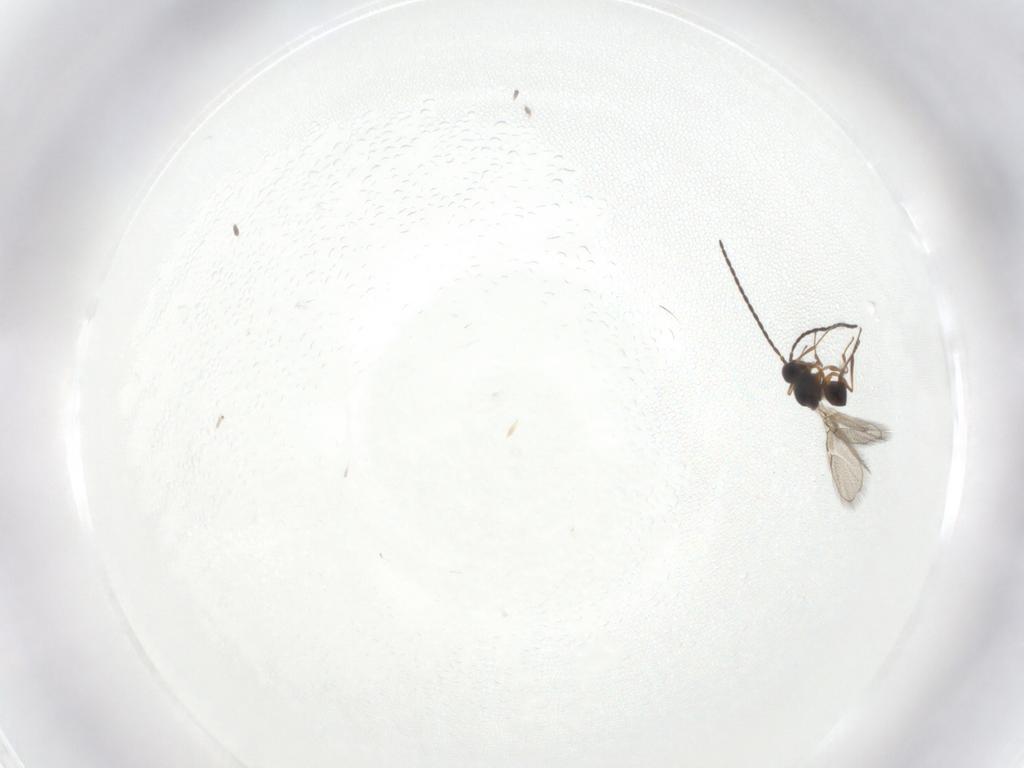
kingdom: Animalia
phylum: Arthropoda
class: Insecta
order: Hymenoptera
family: Figitidae
